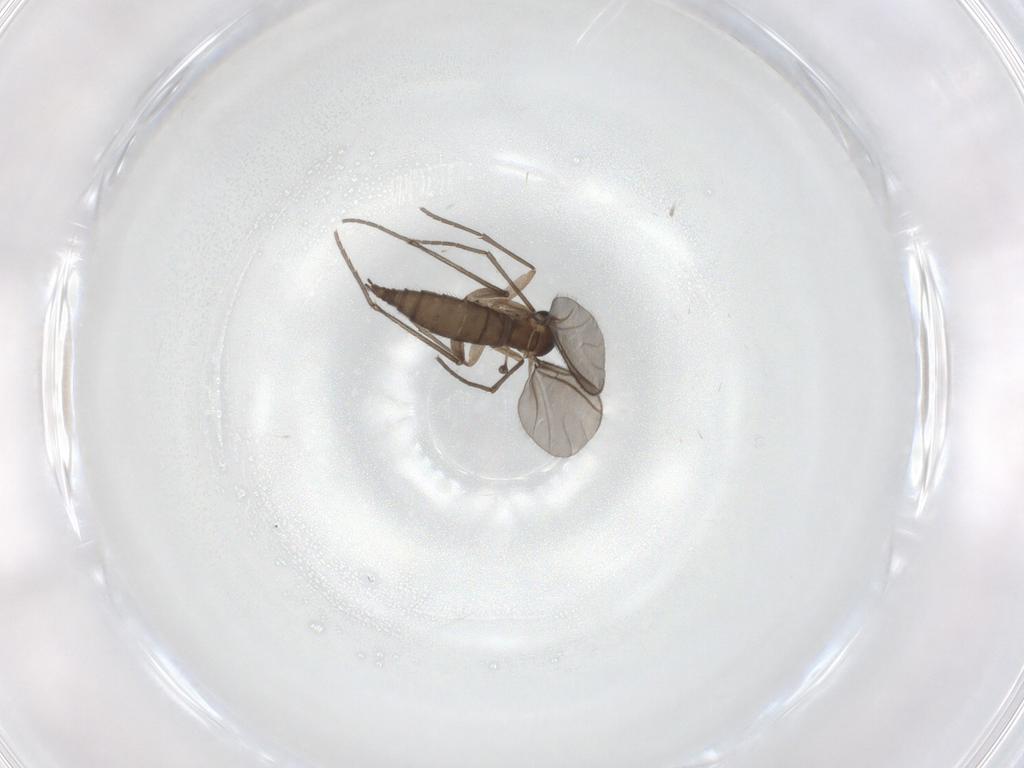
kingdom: Animalia
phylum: Arthropoda
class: Insecta
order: Diptera
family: Sciaridae
